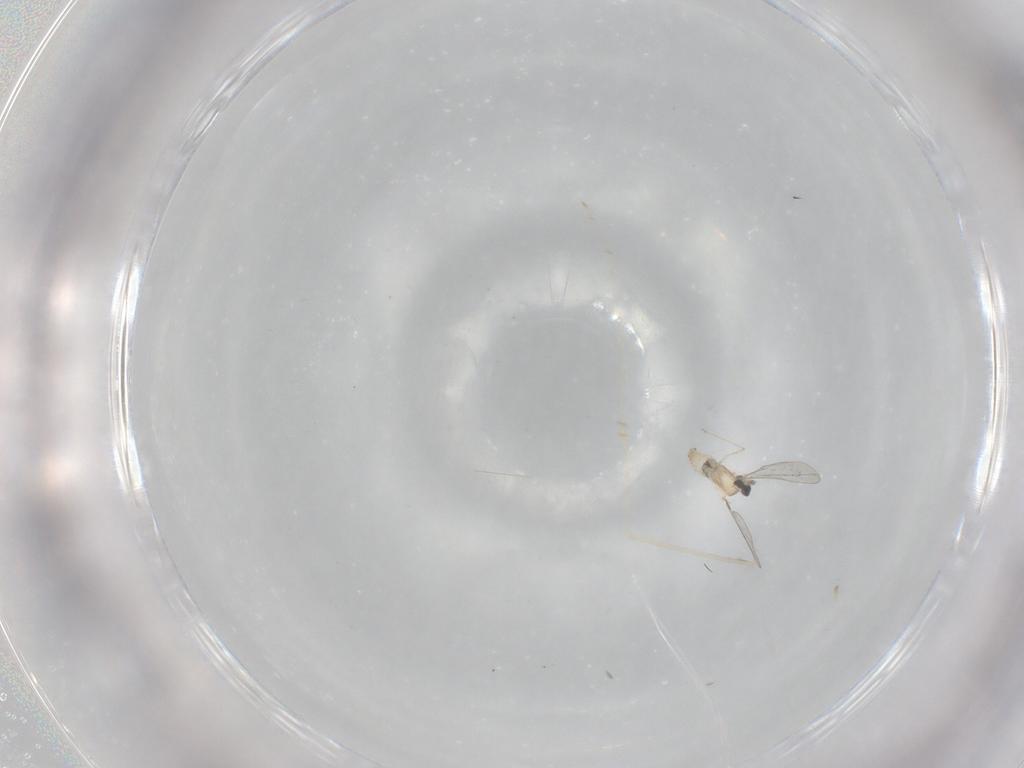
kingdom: Animalia
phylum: Arthropoda
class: Insecta
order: Diptera
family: Cecidomyiidae
